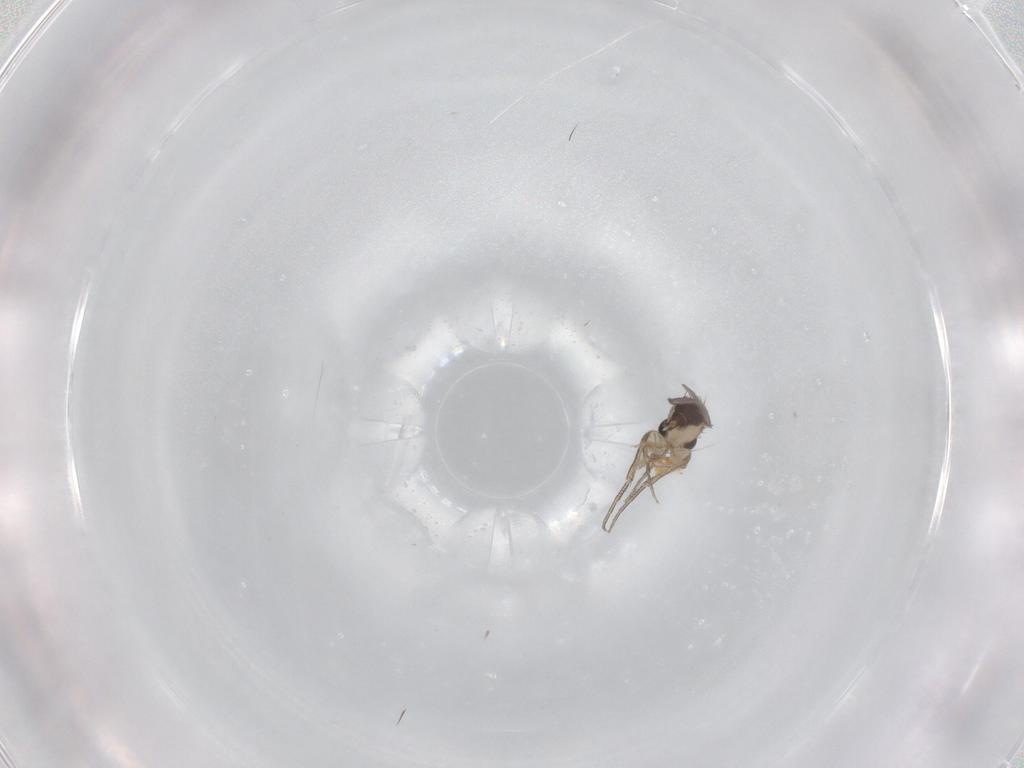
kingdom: Animalia
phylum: Arthropoda
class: Insecta
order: Diptera
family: Phoridae
